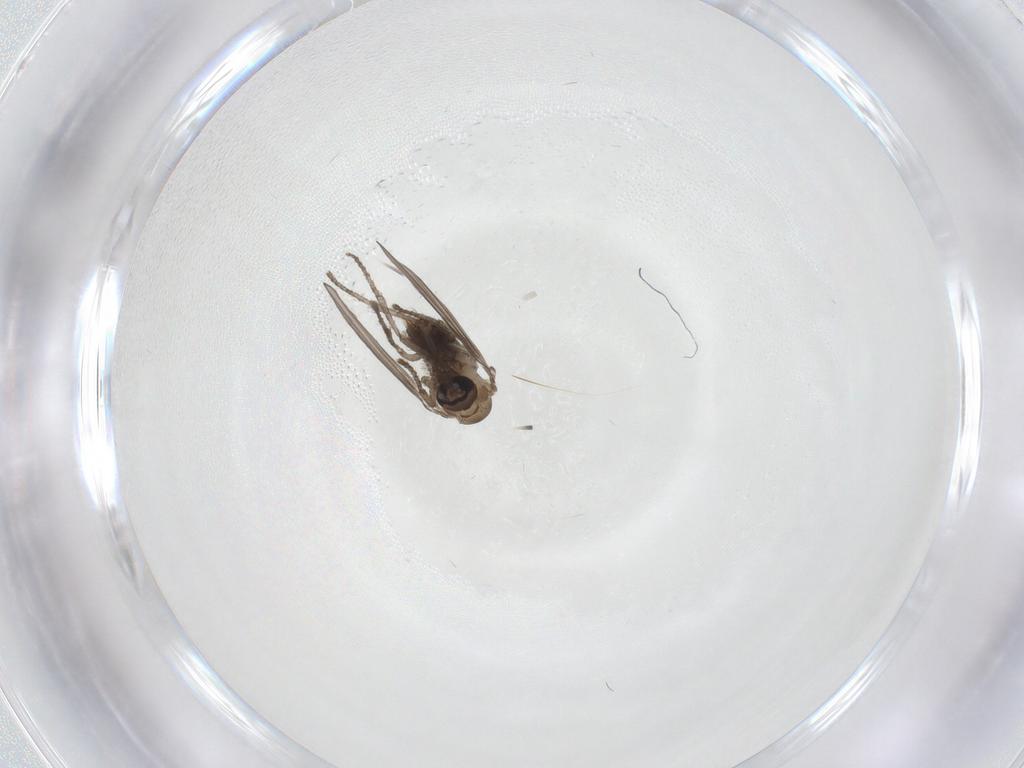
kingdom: Animalia
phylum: Arthropoda
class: Insecta
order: Diptera
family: Psychodidae
